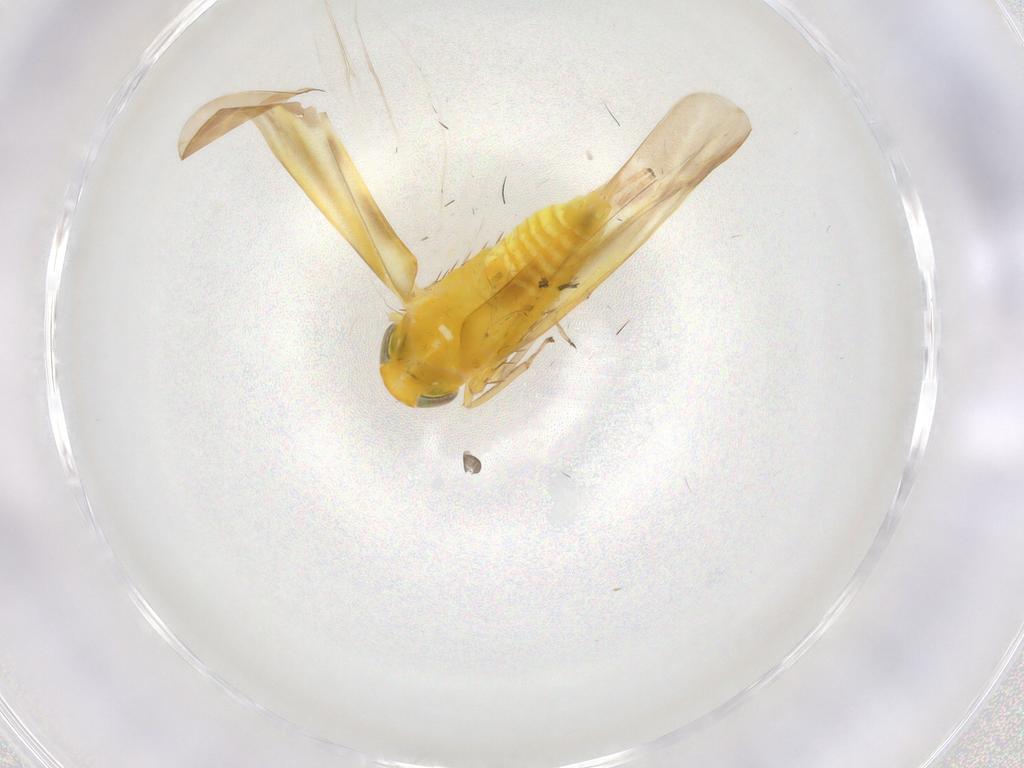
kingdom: Animalia
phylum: Arthropoda
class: Insecta
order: Hemiptera
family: Cicadellidae
